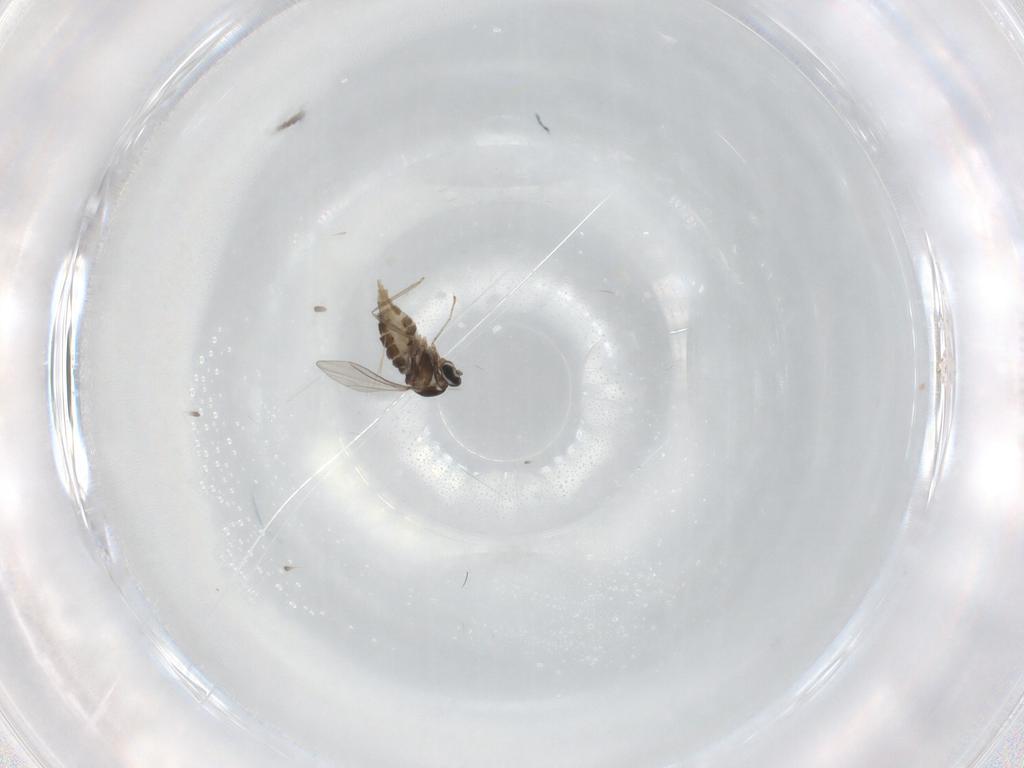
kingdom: Animalia
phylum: Arthropoda
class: Insecta
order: Diptera
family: Cecidomyiidae
